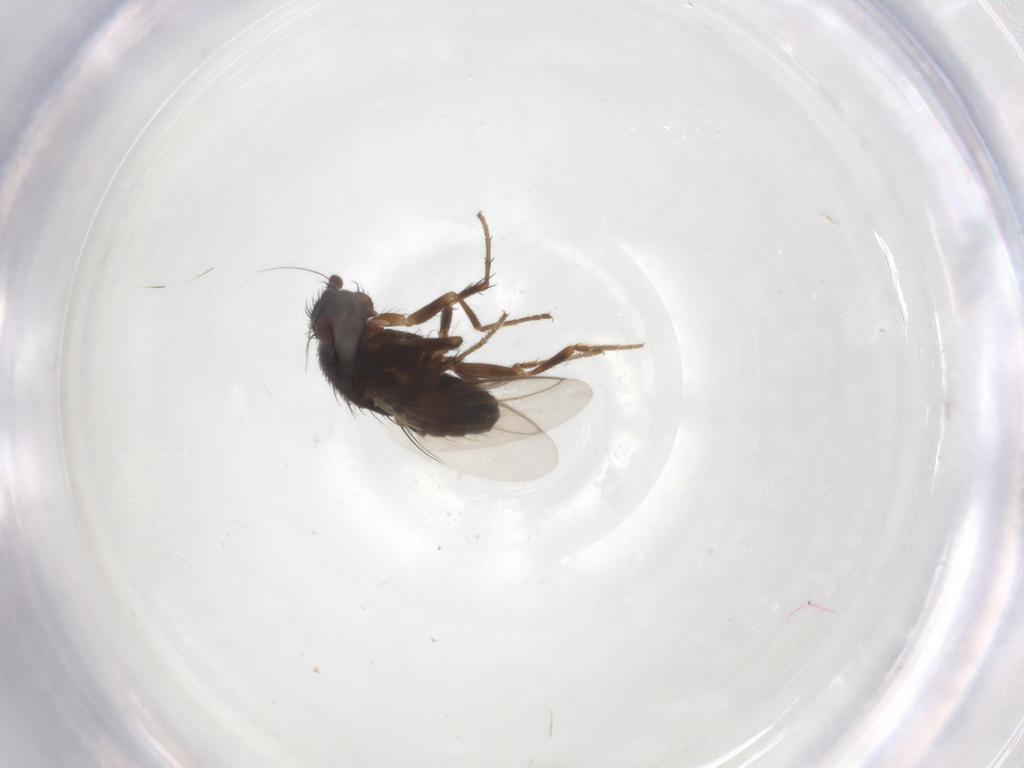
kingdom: Animalia
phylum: Arthropoda
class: Insecta
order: Diptera
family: Sphaeroceridae
